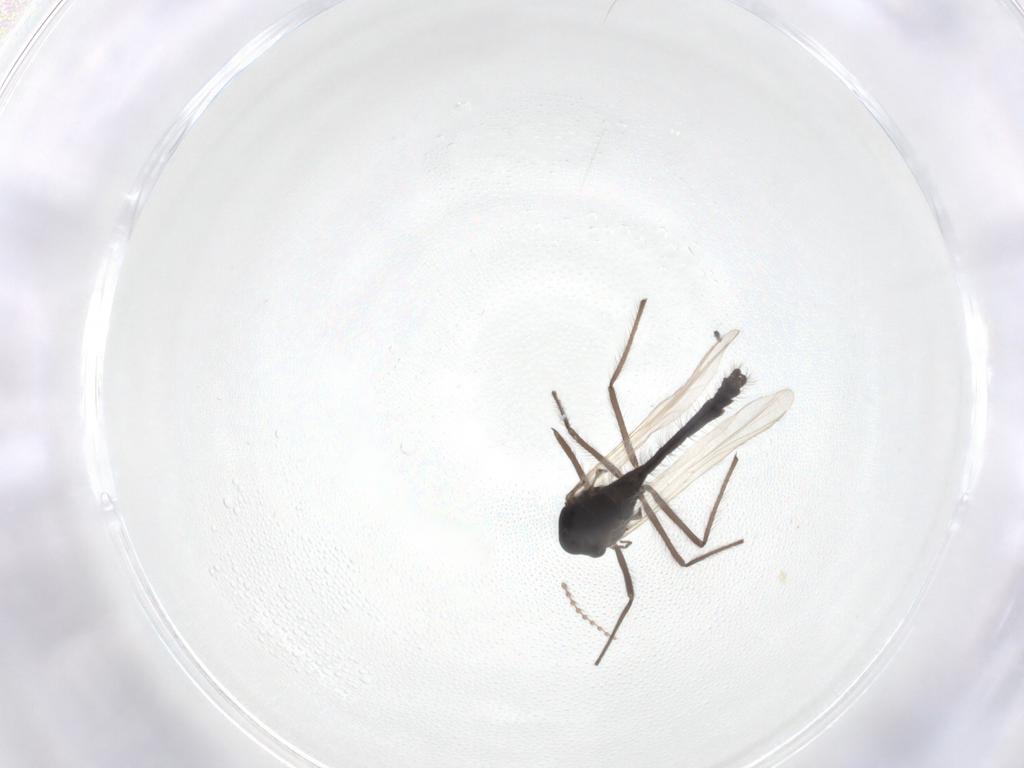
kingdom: Animalia
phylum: Arthropoda
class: Insecta
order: Diptera
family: Chironomidae
